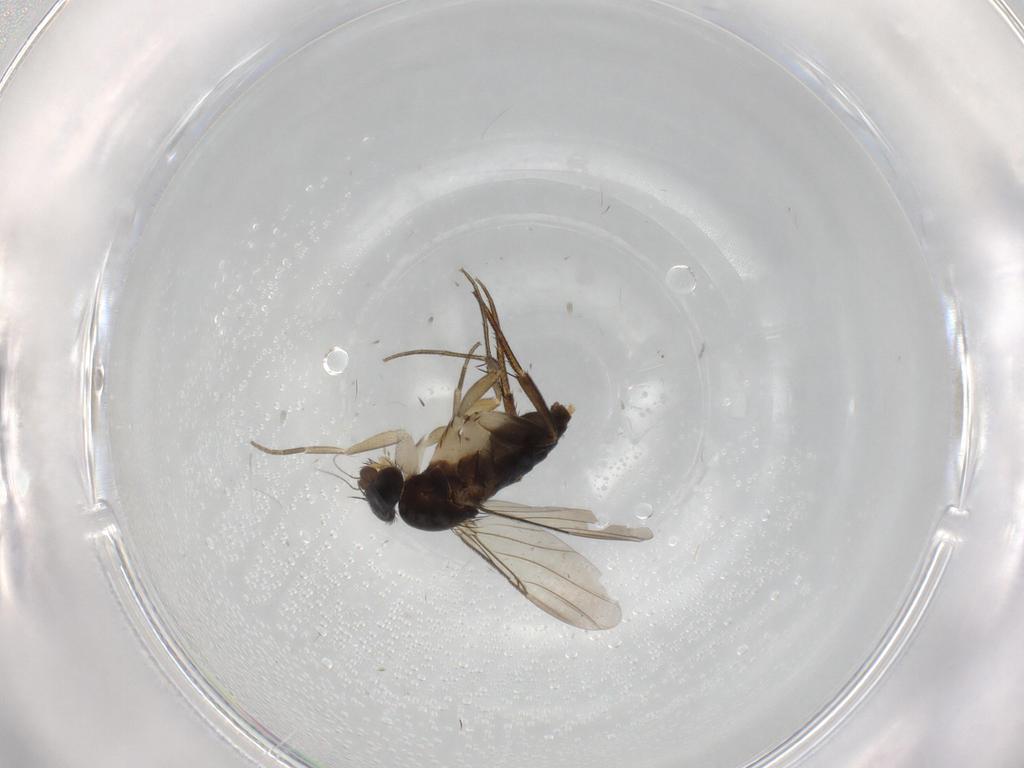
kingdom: Animalia
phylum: Arthropoda
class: Insecta
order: Diptera
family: Phoridae
